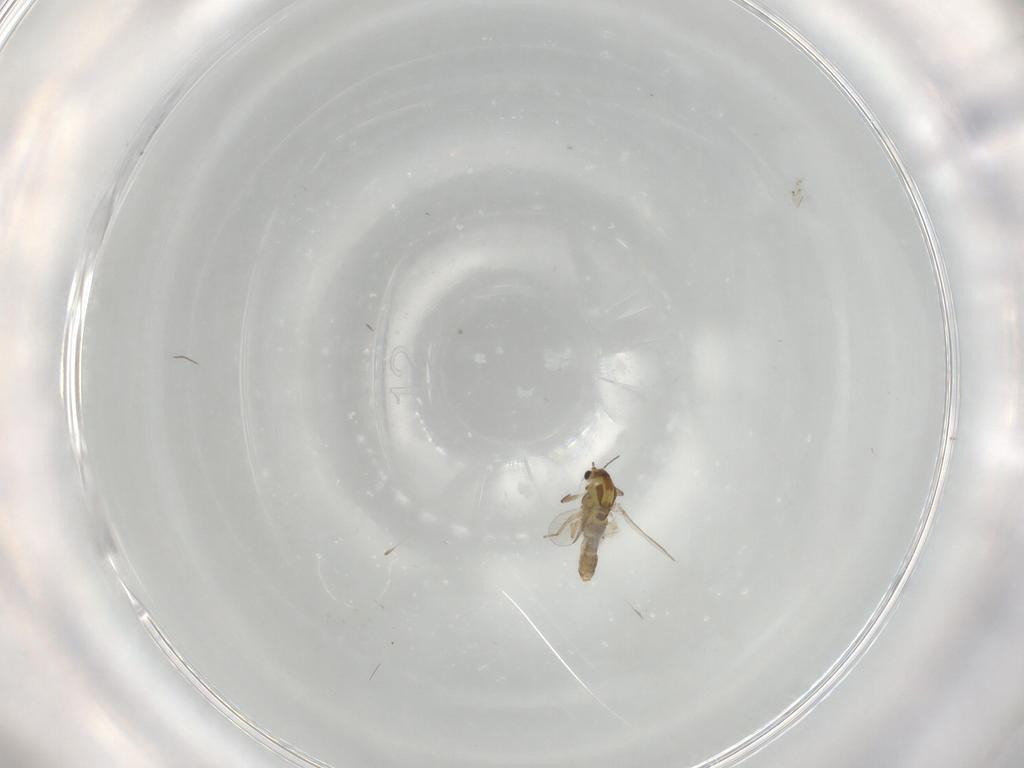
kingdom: Animalia
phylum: Arthropoda
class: Insecta
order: Diptera
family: Chironomidae
